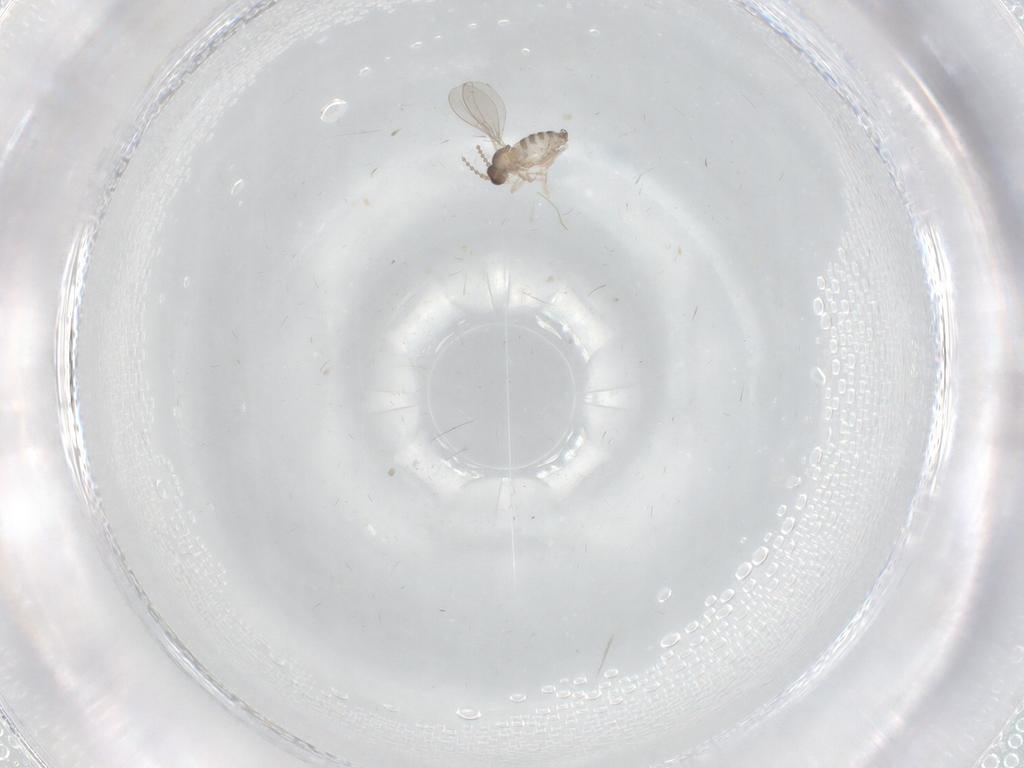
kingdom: Animalia
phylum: Arthropoda
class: Insecta
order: Diptera
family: Cecidomyiidae
